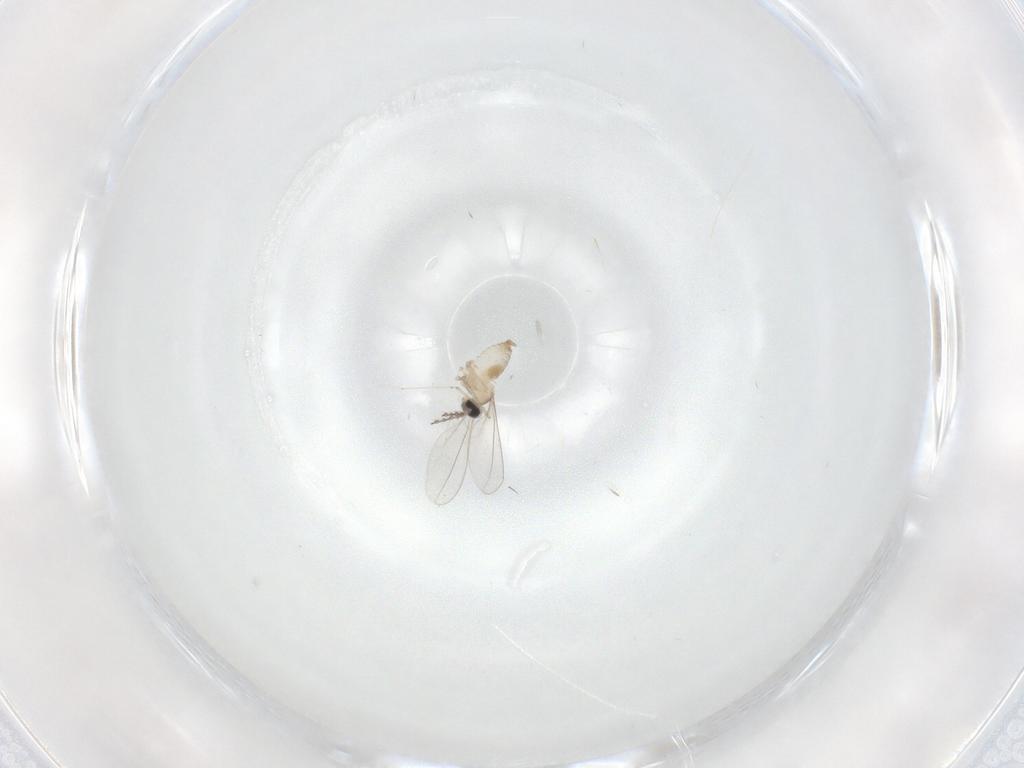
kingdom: Animalia
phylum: Arthropoda
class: Insecta
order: Diptera
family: Cecidomyiidae
